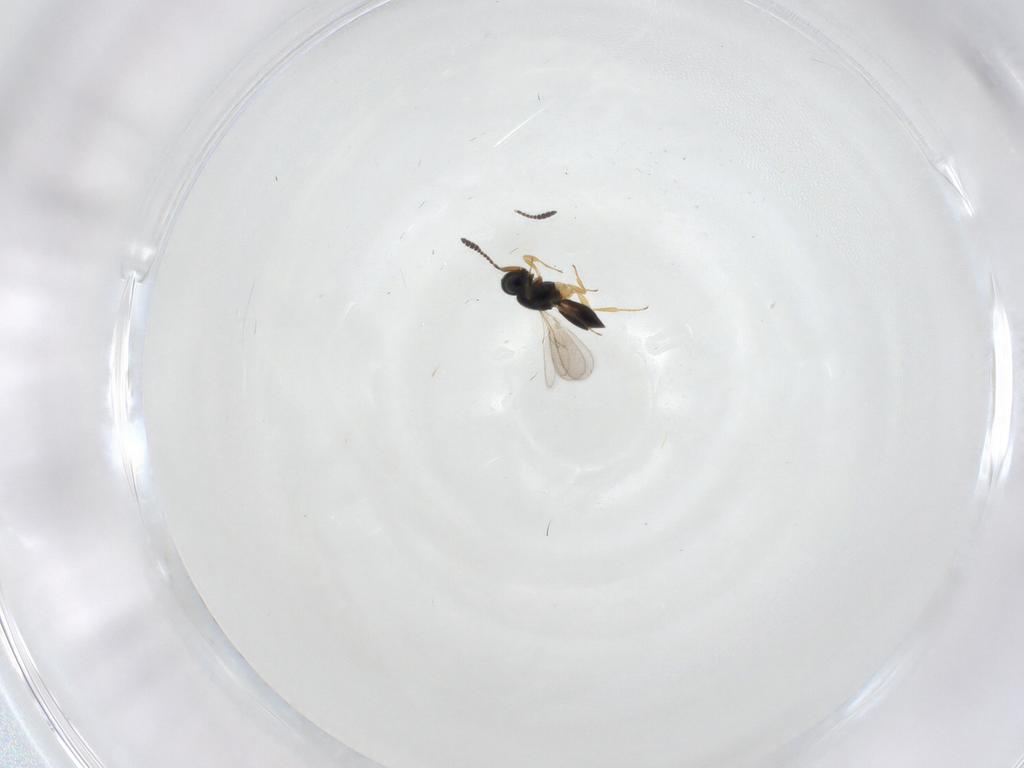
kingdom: Animalia
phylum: Arthropoda
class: Insecta
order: Hymenoptera
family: Scelionidae
